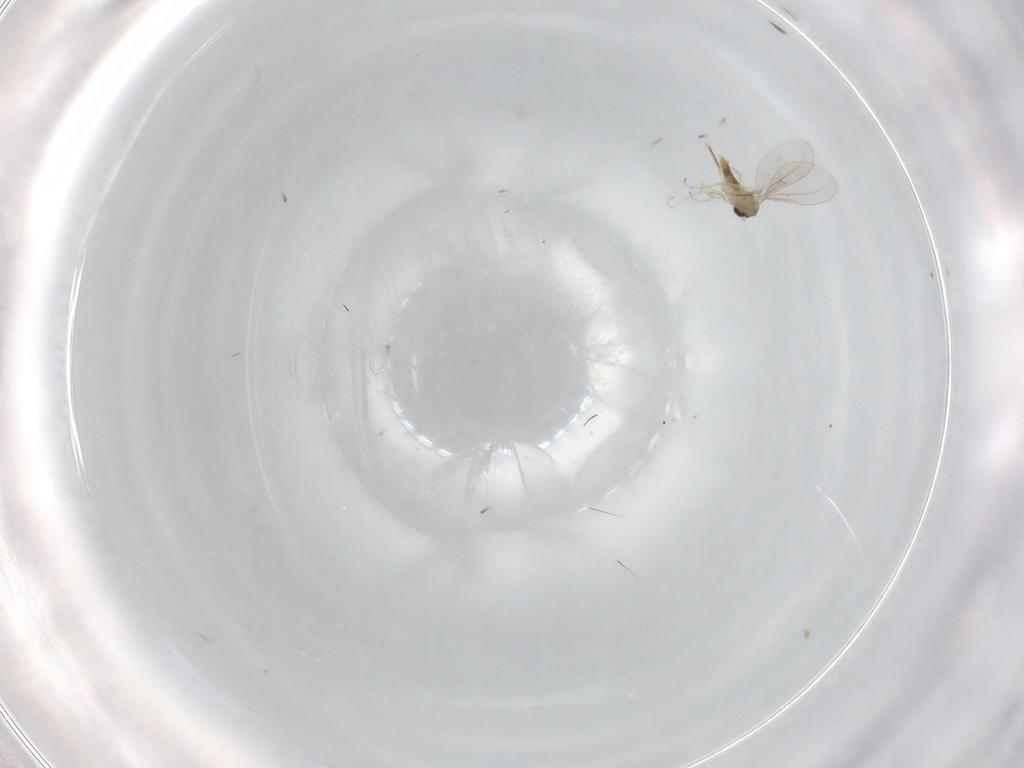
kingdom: Animalia
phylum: Arthropoda
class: Insecta
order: Diptera
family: Cecidomyiidae
